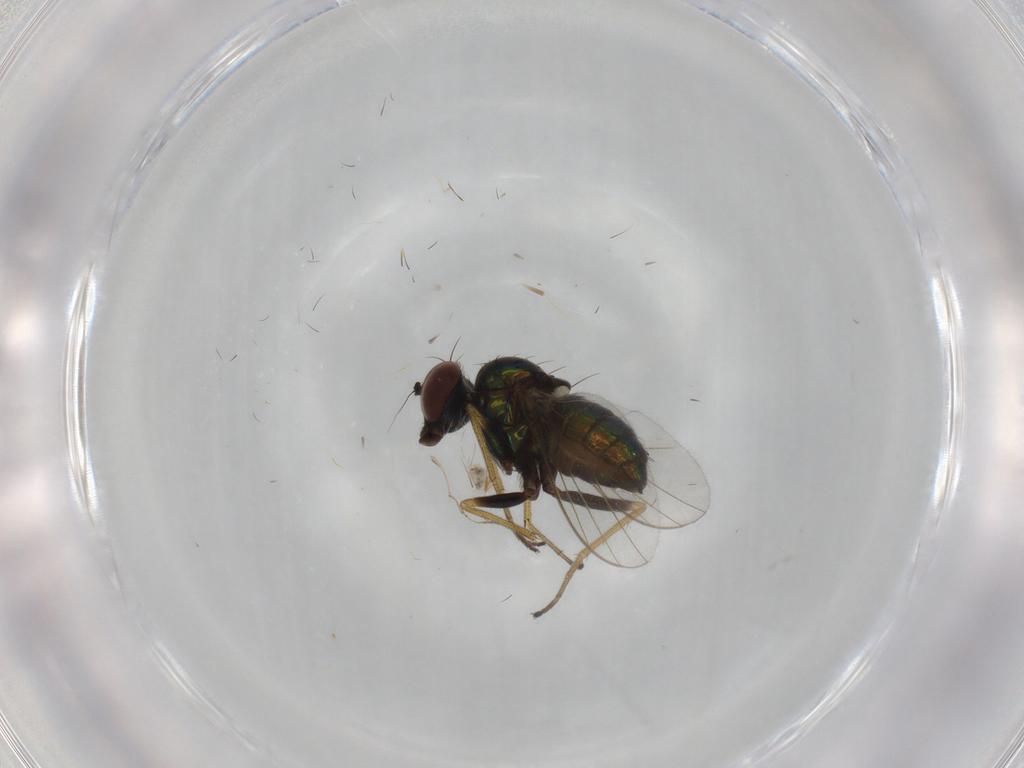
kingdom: Animalia
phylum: Arthropoda
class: Insecta
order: Diptera
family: Dolichopodidae
